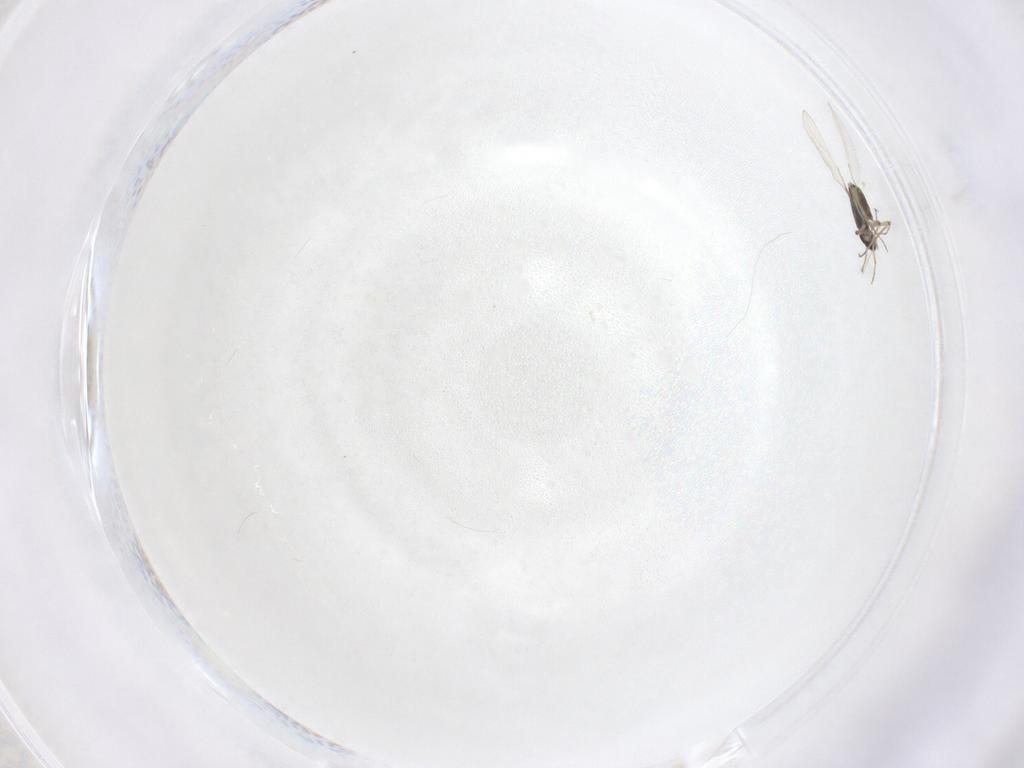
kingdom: Animalia
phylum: Arthropoda
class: Insecta
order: Diptera
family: Chironomidae
